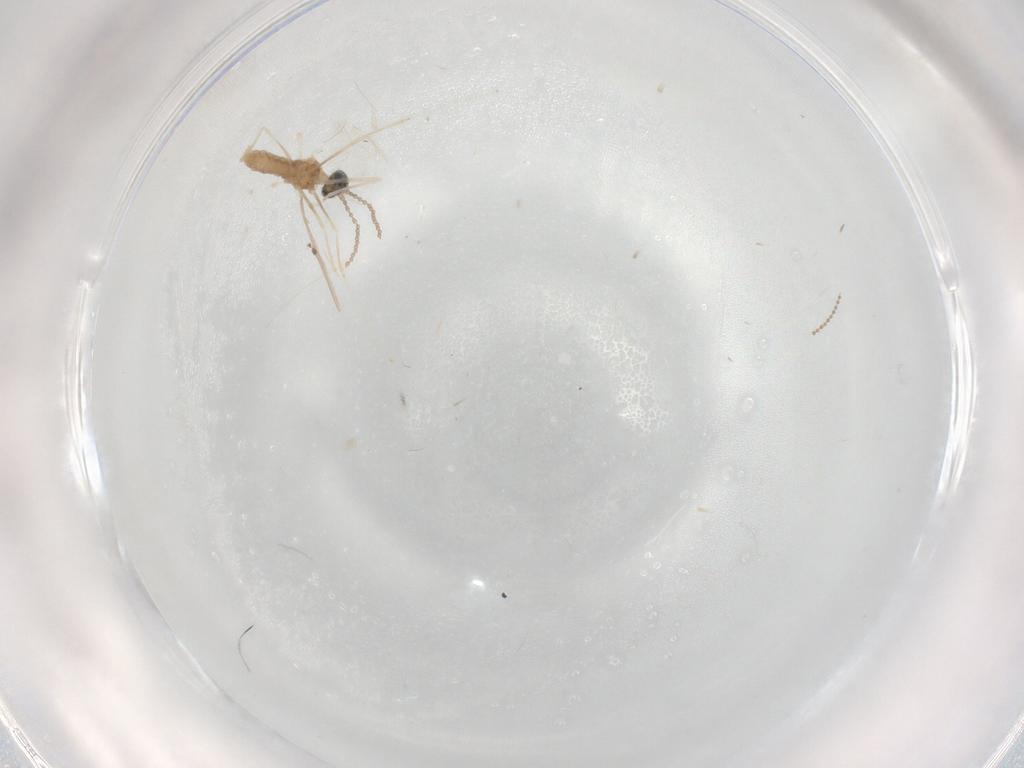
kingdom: Animalia
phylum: Arthropoda
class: Insecta
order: Diptera
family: Cecidomyiidae
